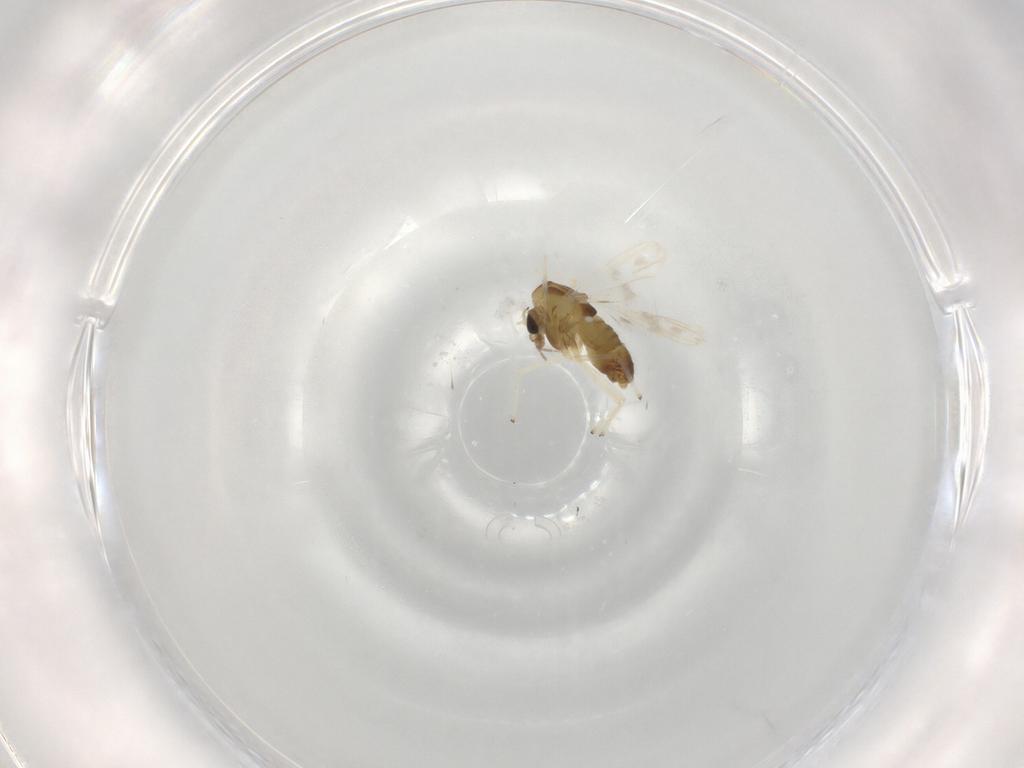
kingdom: Animalia
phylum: Arthropoda
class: Insecta
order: Diptera
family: Chironomidae
